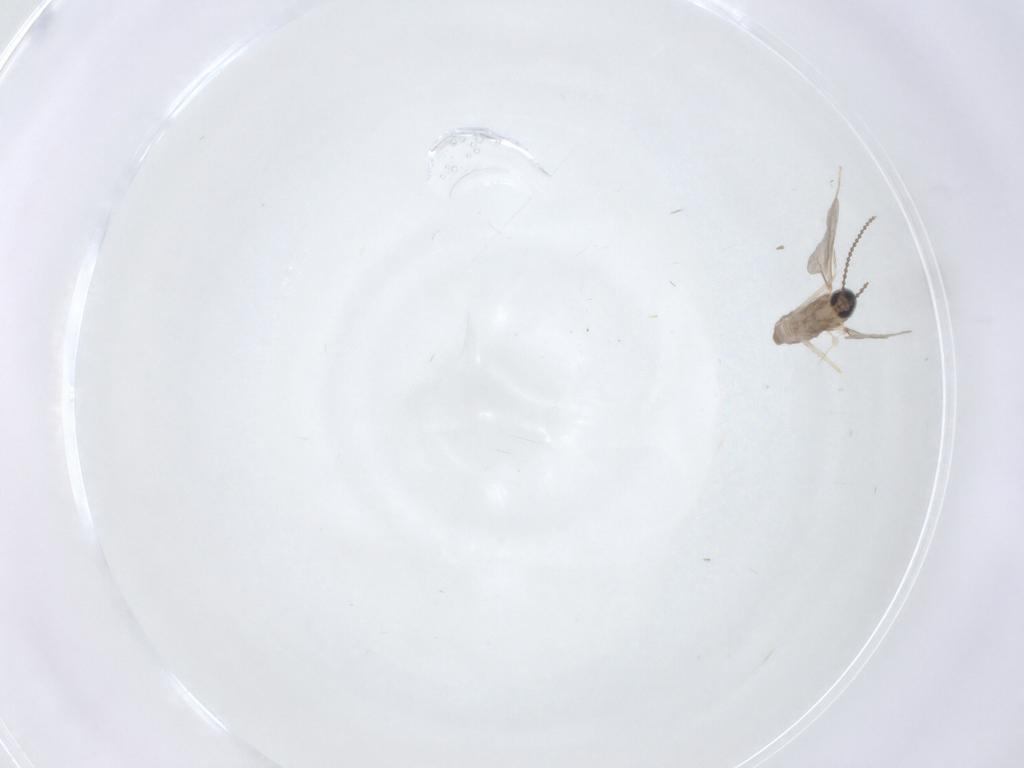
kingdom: Animalia
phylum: Arthropoda
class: Insecta
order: Diptera
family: Cecidomyiidae
